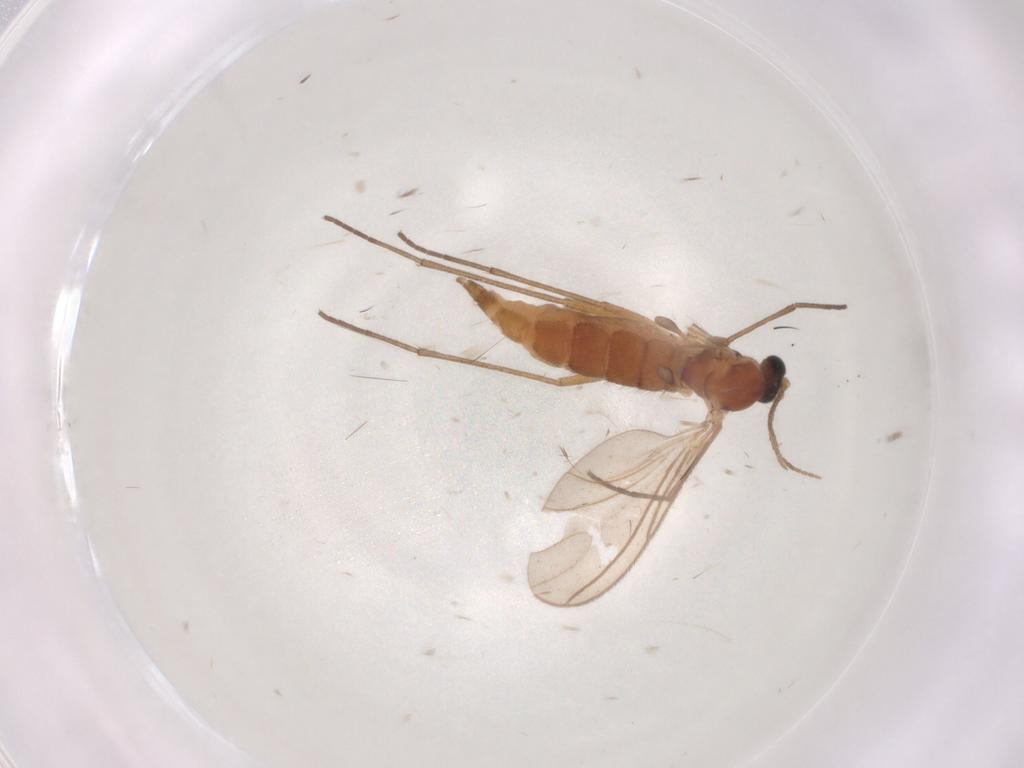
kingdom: Animalia
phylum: Arthropoda
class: Insecta
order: Diptera
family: Sciaridae
